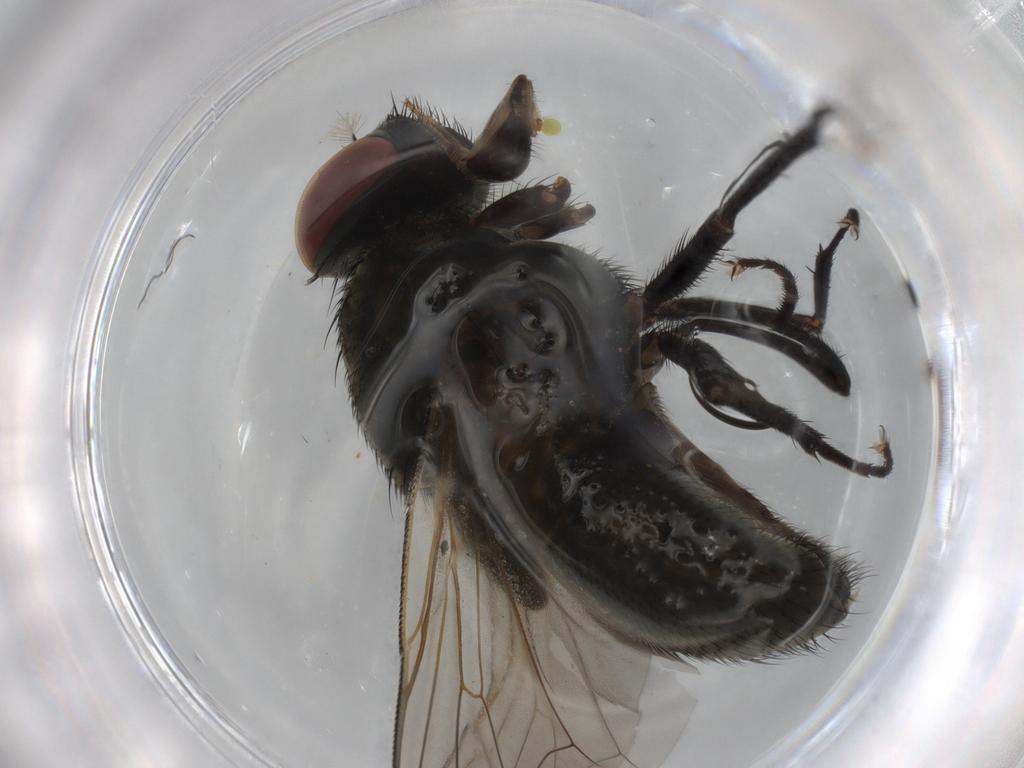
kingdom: Animalia
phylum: Arthropoda
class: Insecta
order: Diptera
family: Muscidae
